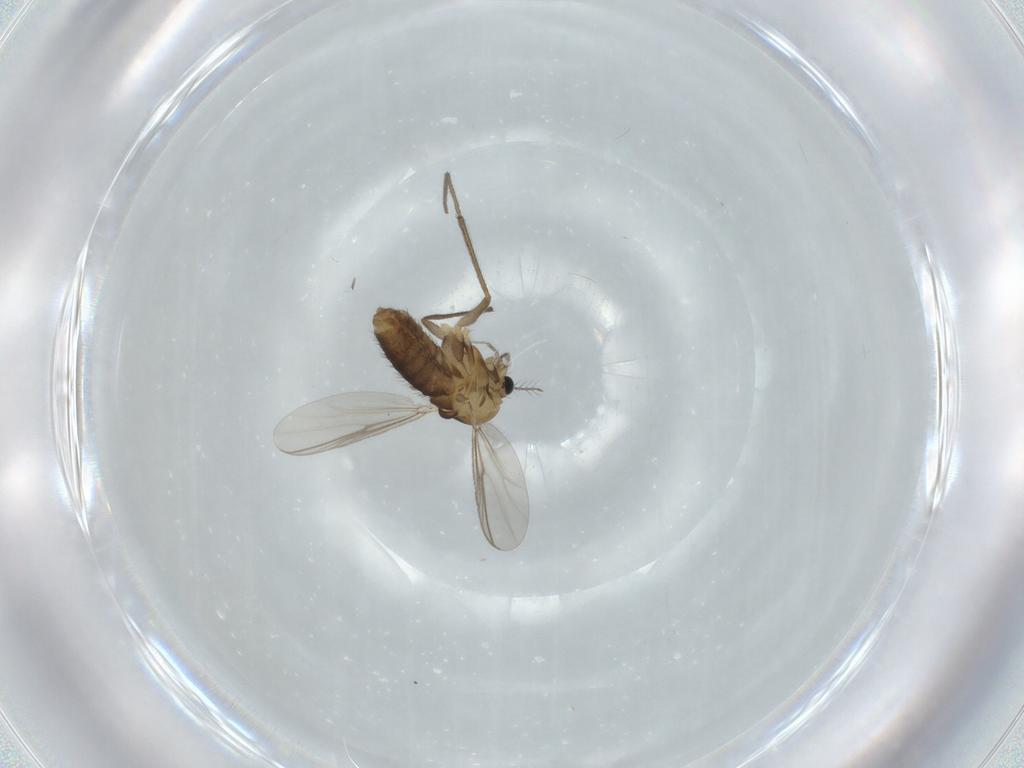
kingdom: Animalia
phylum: Arthropoda
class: Insecta
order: Diptera
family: Chironomidae
